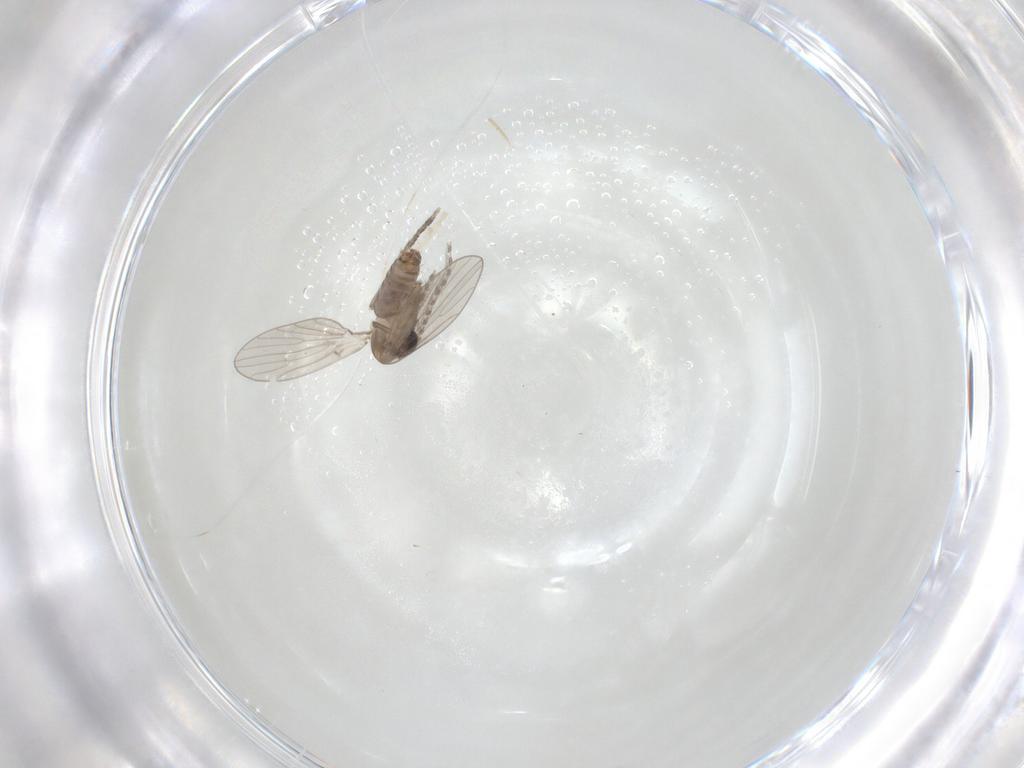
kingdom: Animalia
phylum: Arthropoda
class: Insecta
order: Diptera
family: Psychodidae
